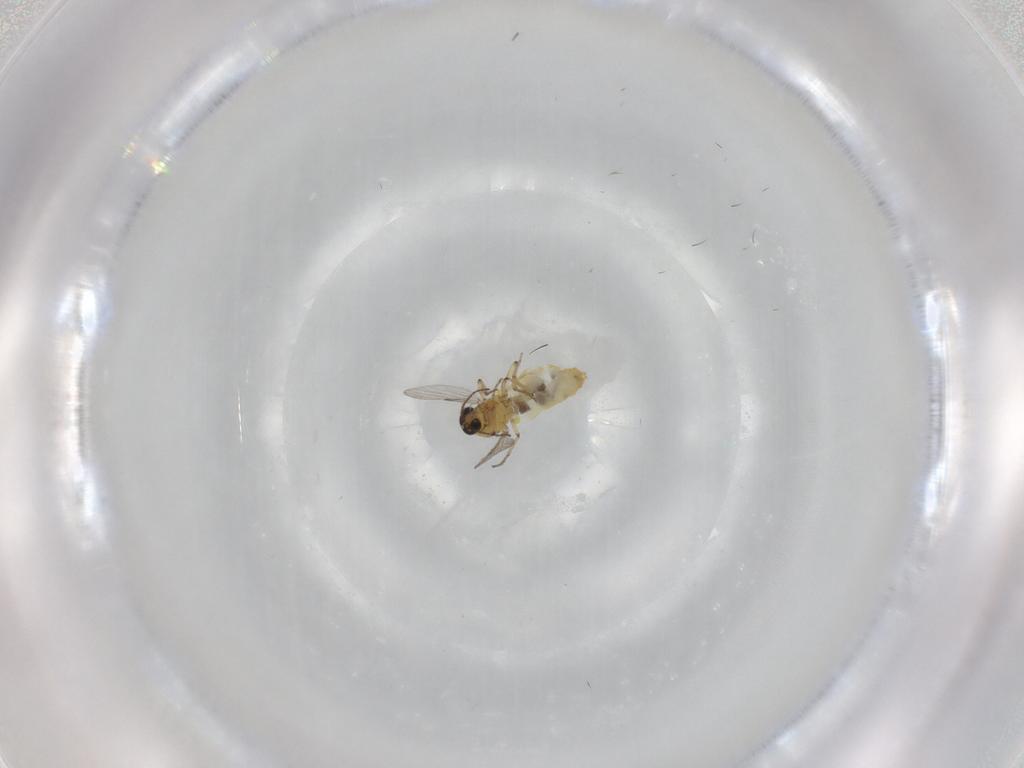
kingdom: Animalia
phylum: Arthropoda
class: Insecta
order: Diptera
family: Ceratopogonidae
